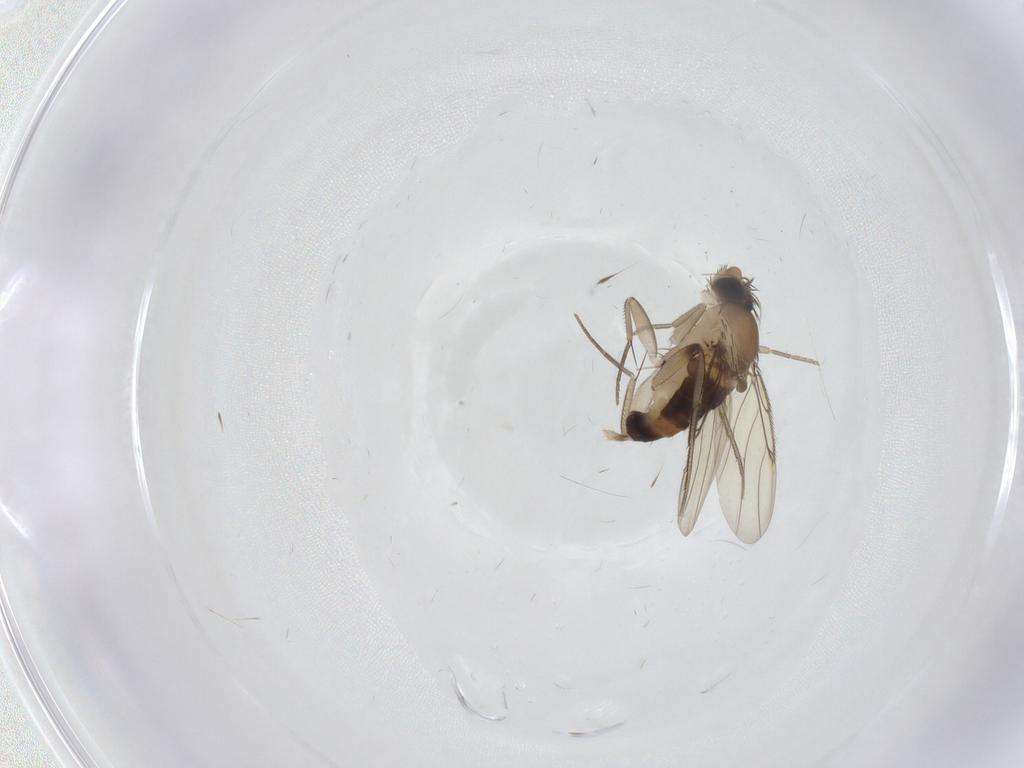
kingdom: Animalia
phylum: Arthropoda
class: Insecta
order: Diptera
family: Phoridae
